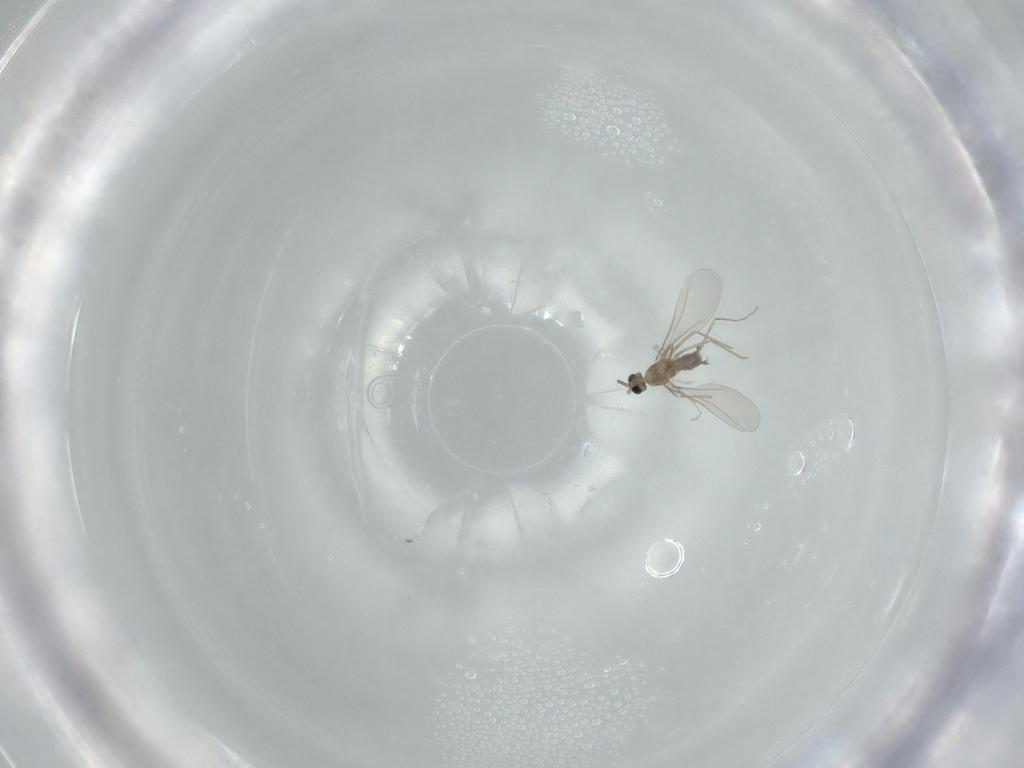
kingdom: Animalia
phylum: Arthropoda
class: Insecta
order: Diptera
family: Cecidomyiidae
